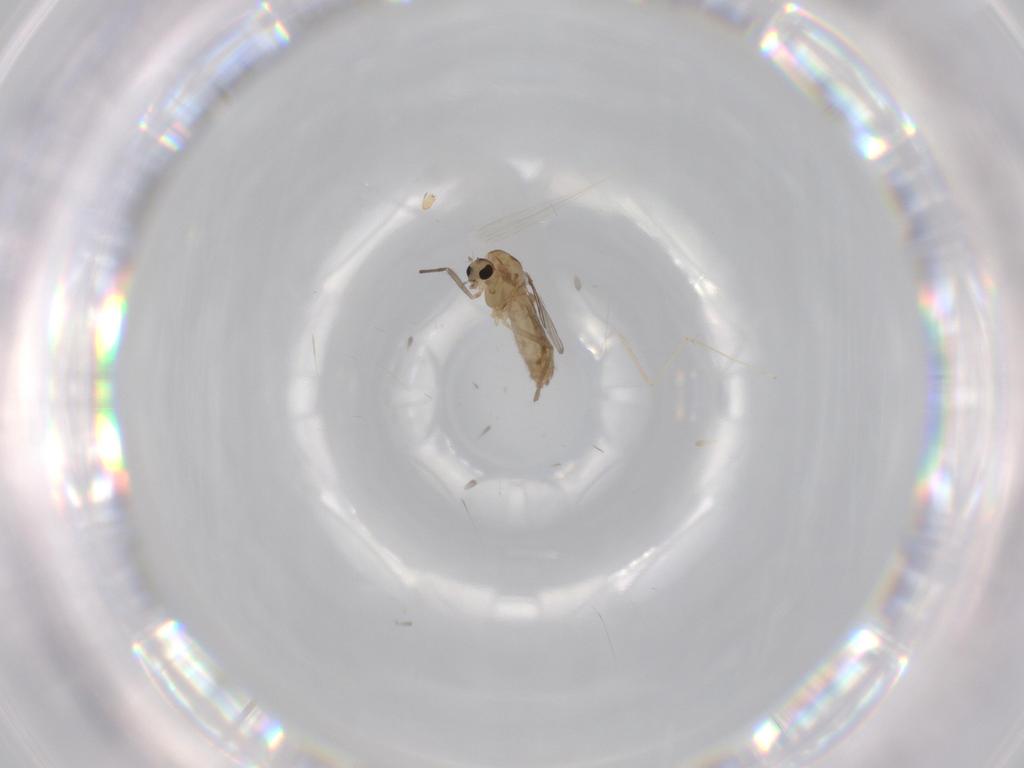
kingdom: Animalia
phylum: Arthropoda
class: Insecta
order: Diptera
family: Chironomidae
